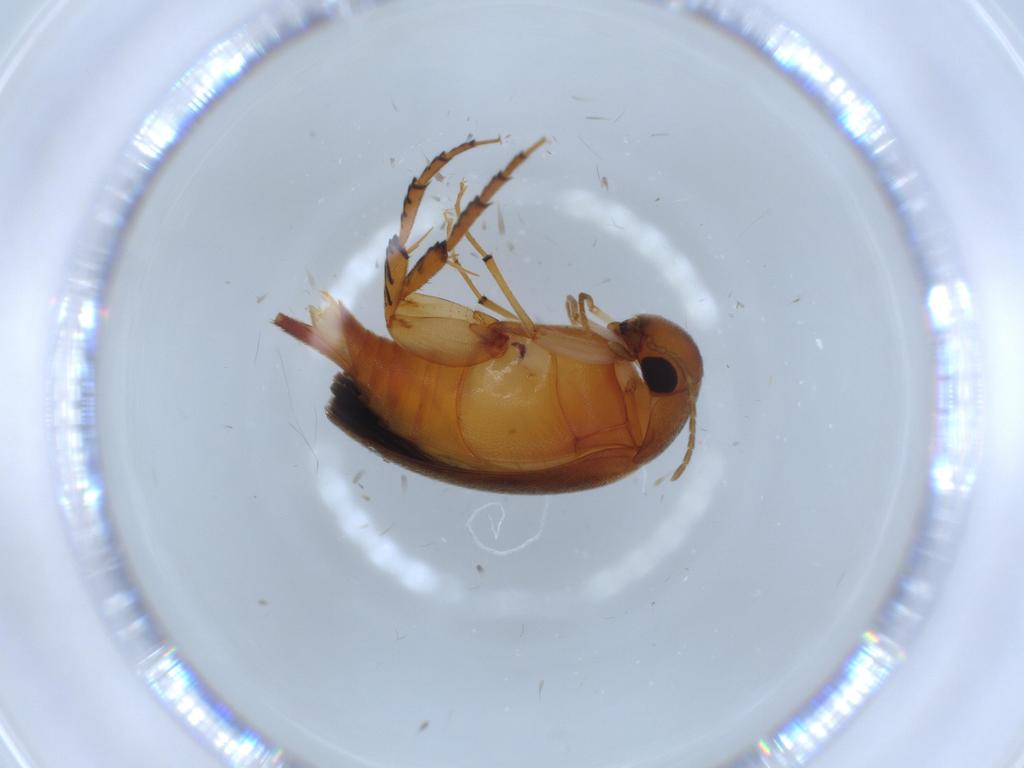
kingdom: Animalia
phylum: Arthropoda
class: Insecta
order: Coleoptera
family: Mordellidae
